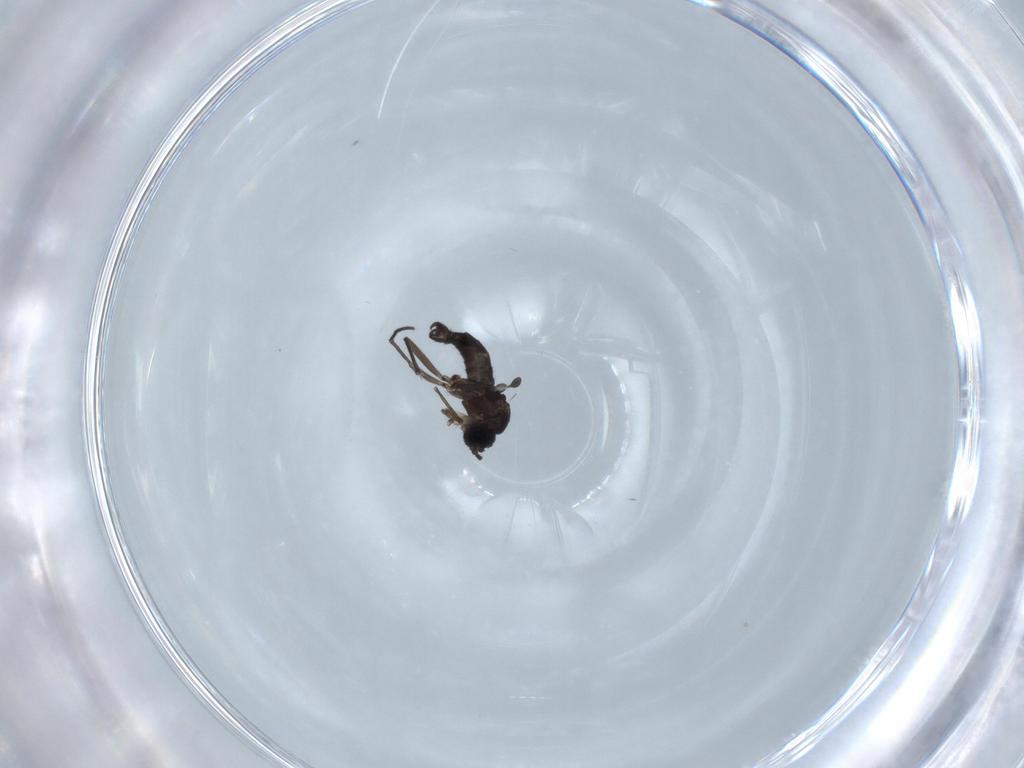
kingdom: Animalia
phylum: Arthropoda
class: Insecta
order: Diptera
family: Sciaridae
